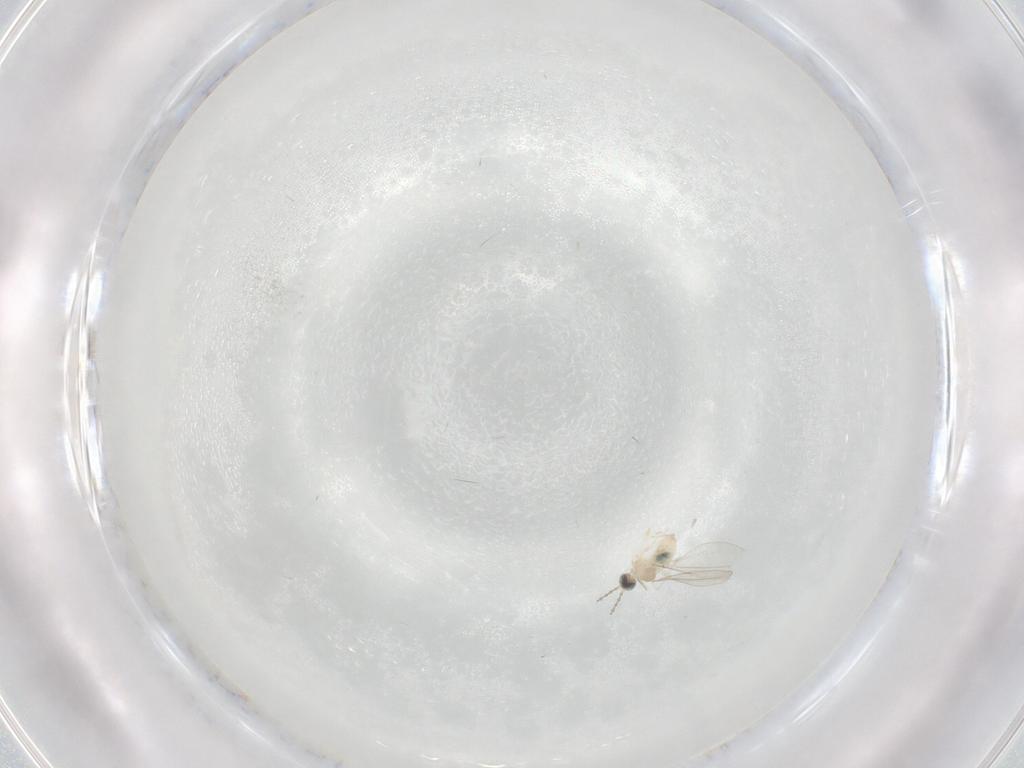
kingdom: Animalia
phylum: Arthropoda
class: Insecta
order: Diptera
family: Cecidomyiidae
